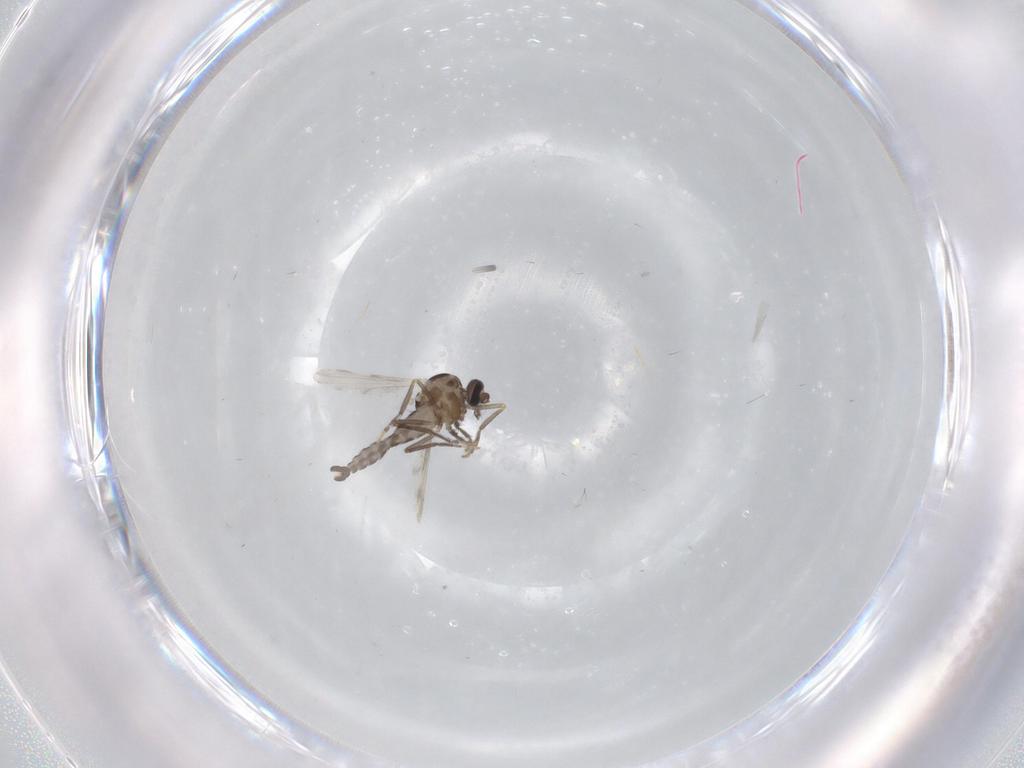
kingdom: Animalia
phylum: Arthropoda
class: Insecta
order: Diptera
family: Ceratopogonidae
